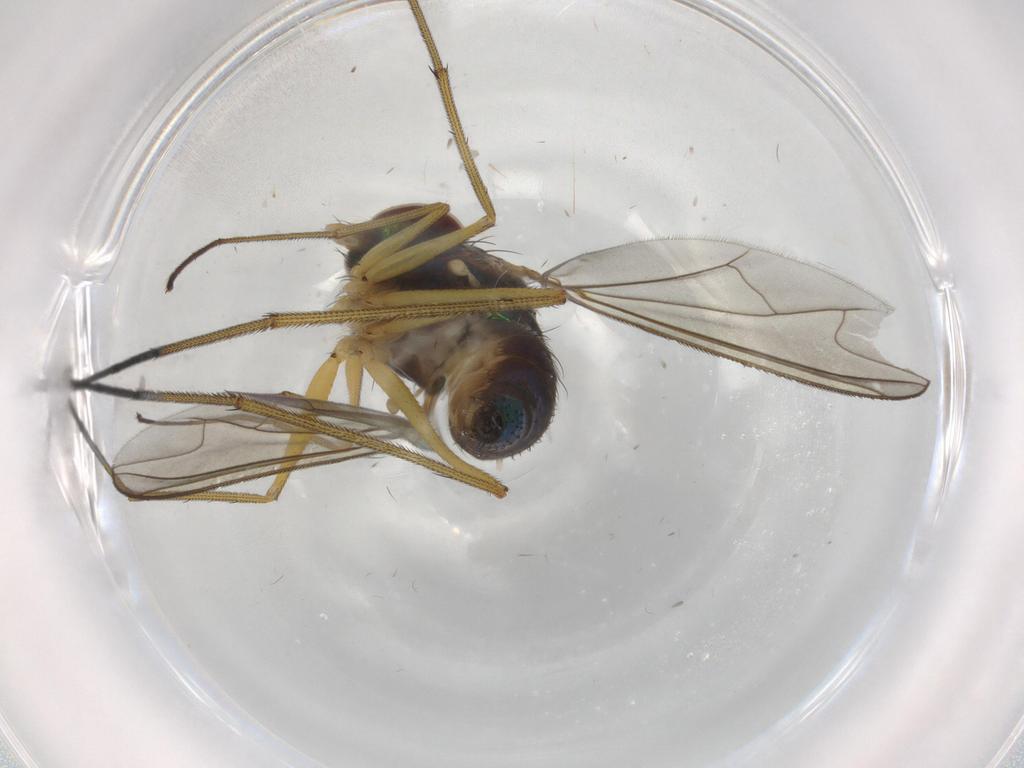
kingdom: Animalia
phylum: Arthropoda
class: Insecta
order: Diptera
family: Dolichopodidae
